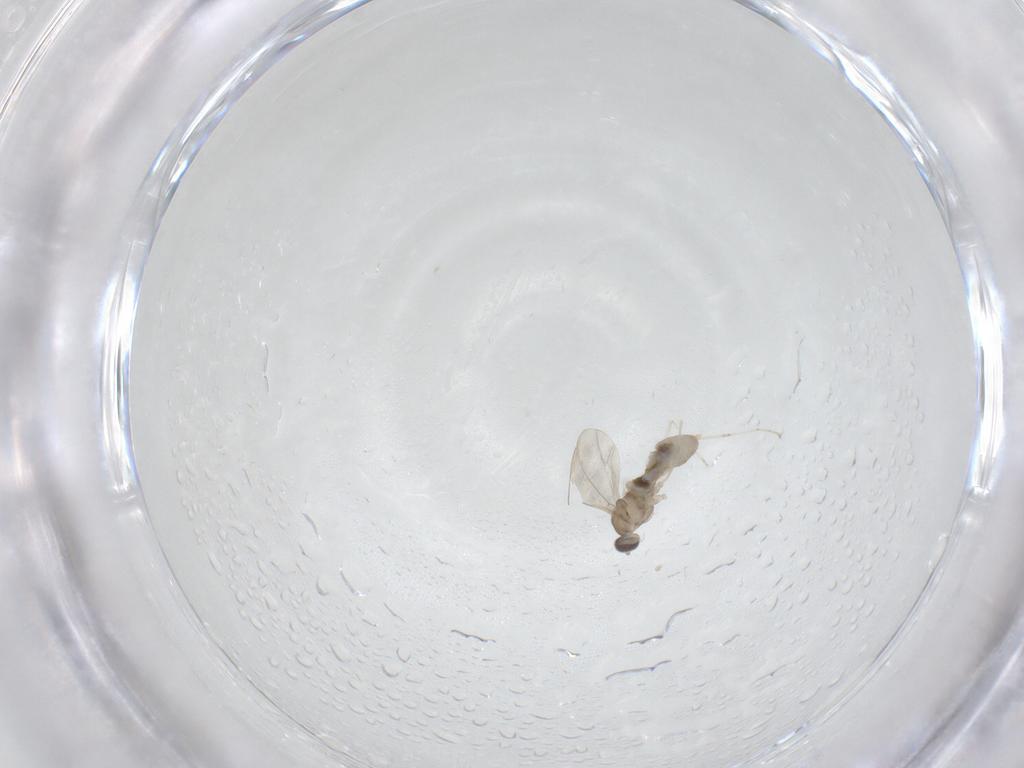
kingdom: Animalia
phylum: Arthropoda
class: Insecta
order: Diptera
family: Cecidomyiidae
